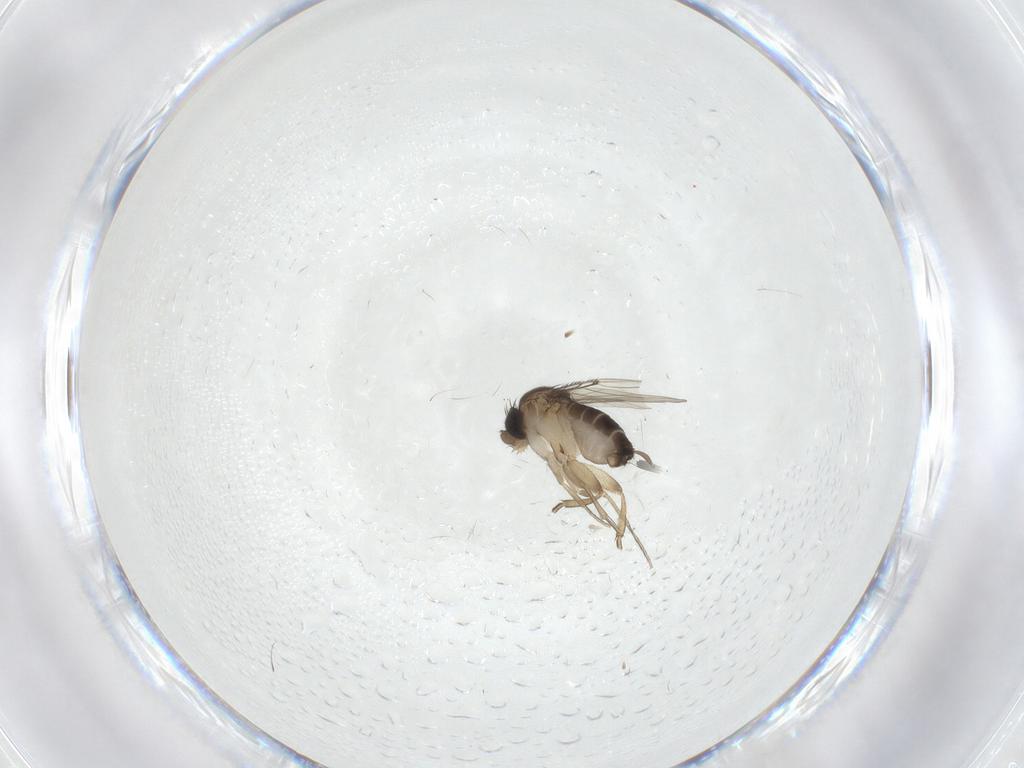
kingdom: Animalia
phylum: Arthropoda
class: Insecta
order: Diptera
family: Phoridae
